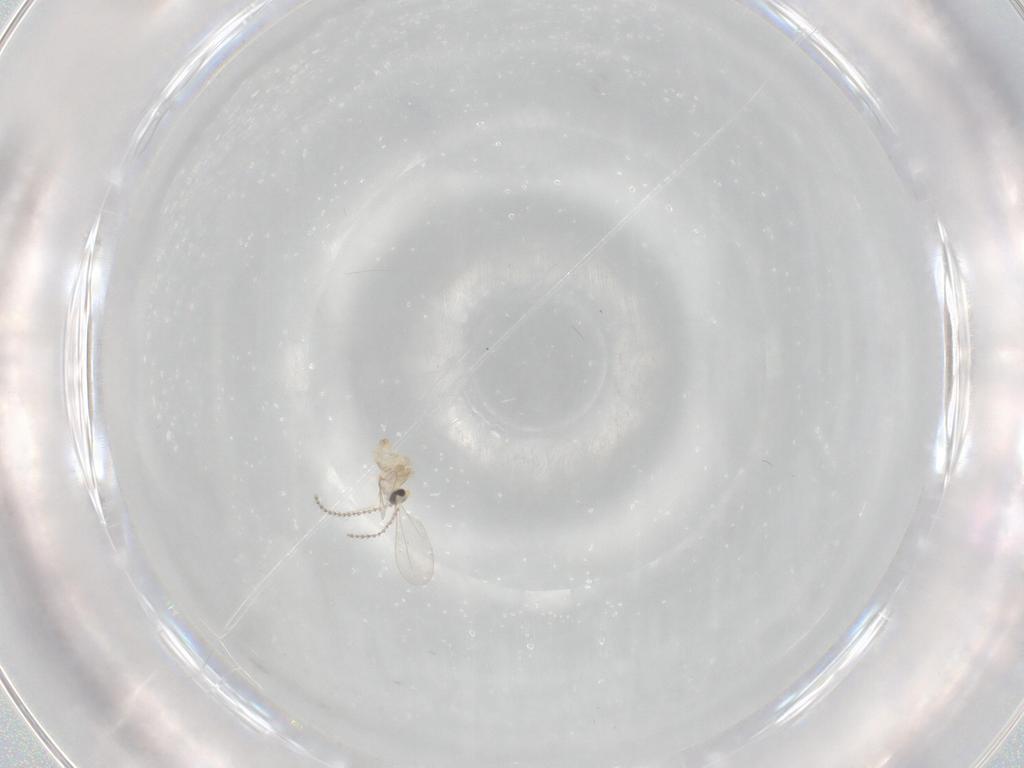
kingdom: Animalia
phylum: Arthropoda
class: Insecta
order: Diptera
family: Cecidomyiidae
